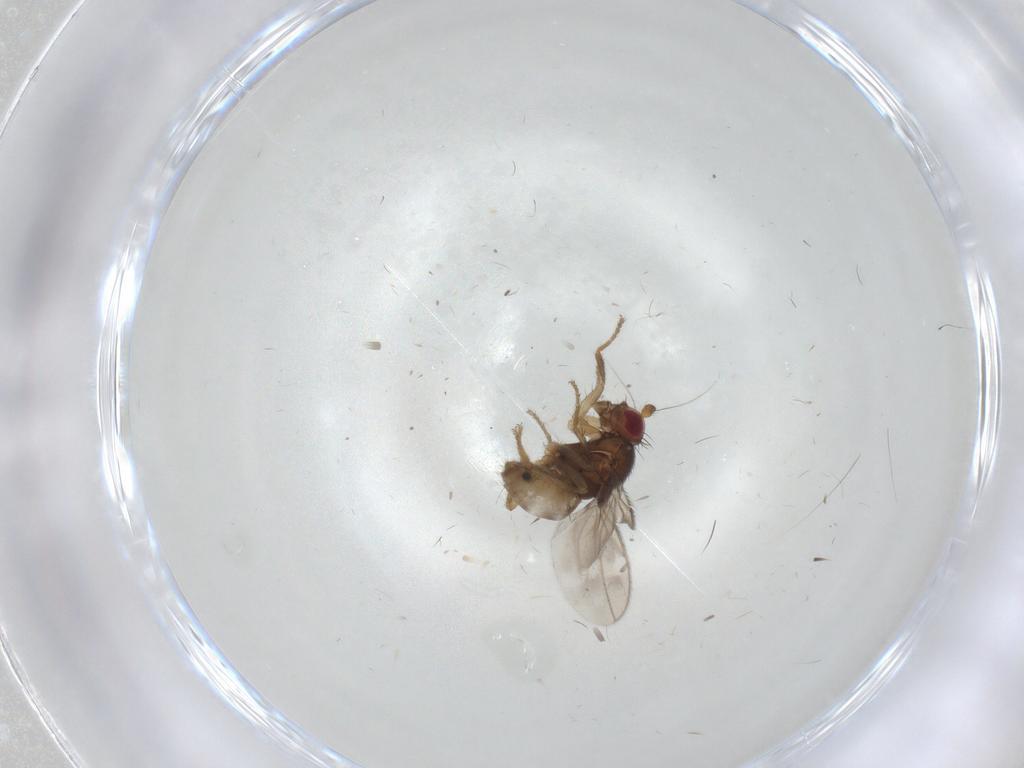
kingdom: Animalia
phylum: Arthropoda
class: Insecta
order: Diptera
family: Sphaeroceridae
